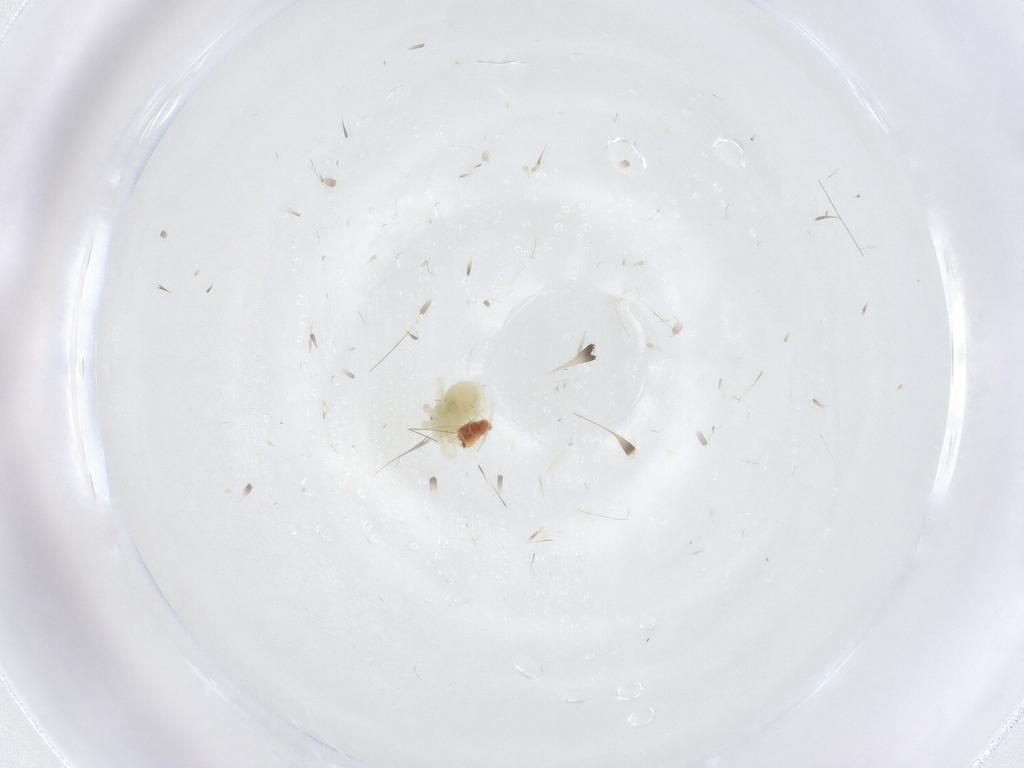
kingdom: Animalia
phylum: Arthropoda
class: Arachnida
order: Trombidiformes
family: Anystidae
